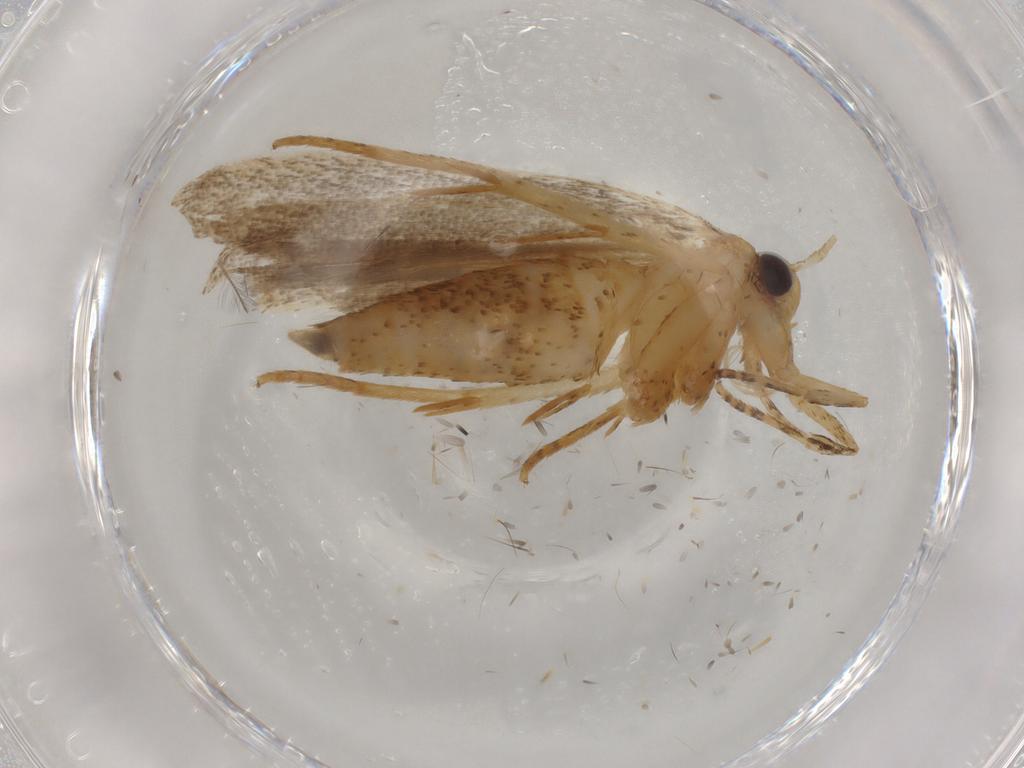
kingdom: Animalia
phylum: Arthropoda
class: Insecta
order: Lepidoptera
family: Autostichidae
